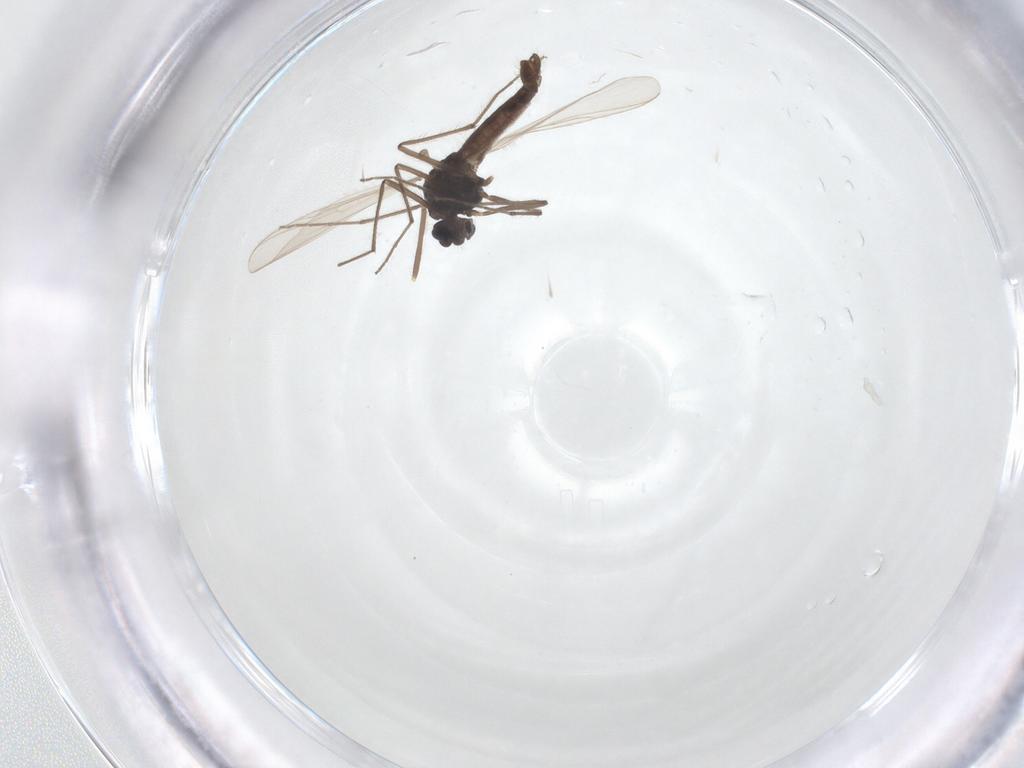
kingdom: Animalia
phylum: Arthropoda
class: Insecta
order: Diptera
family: Chironomidae
